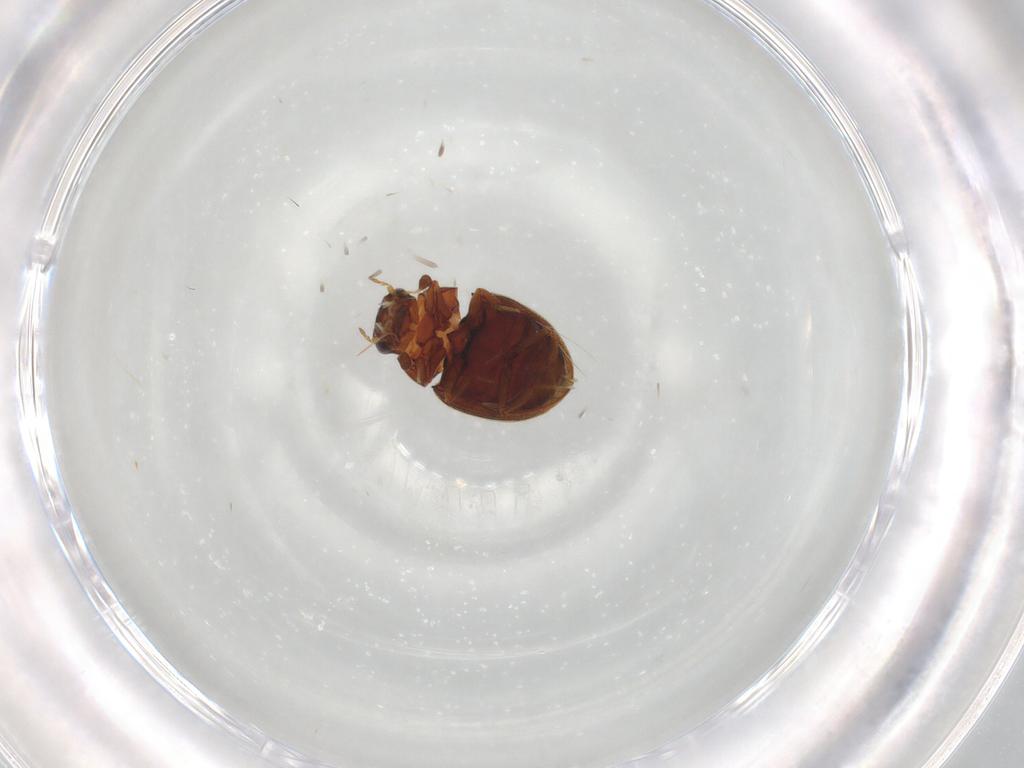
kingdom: Animalia
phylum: Arthropoda
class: Insecta
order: Coleoptera
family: Hydrophilidae
